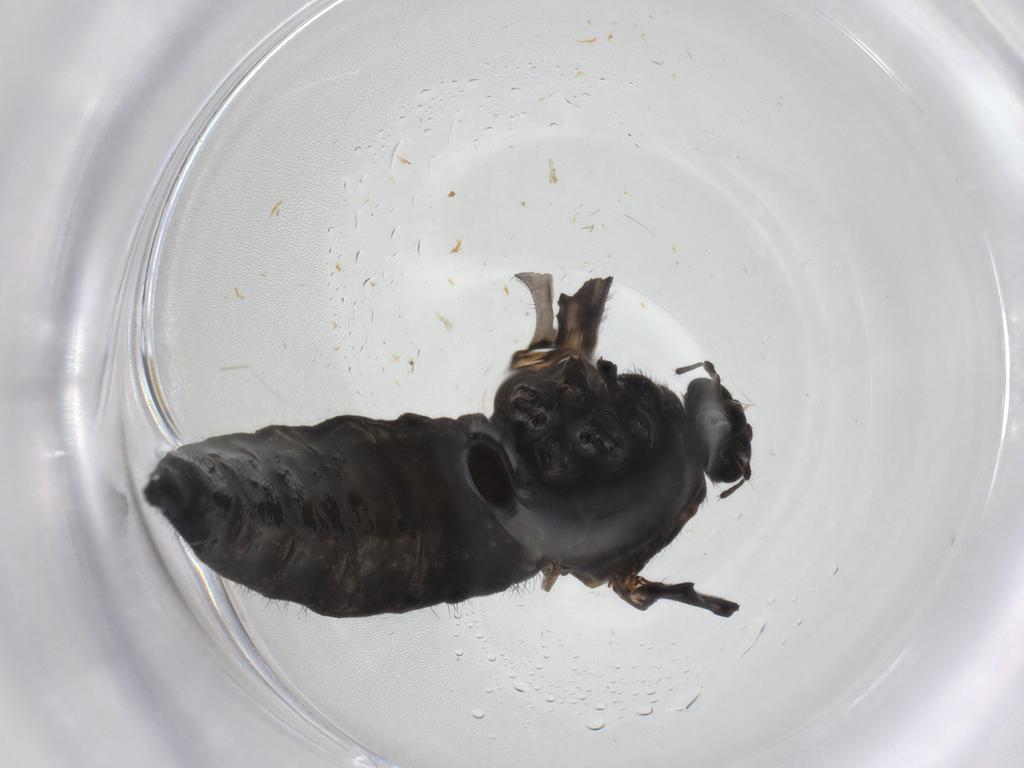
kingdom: Animalia
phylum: Arthropoda
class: Insecta
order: Diptera
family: Sciaridae
